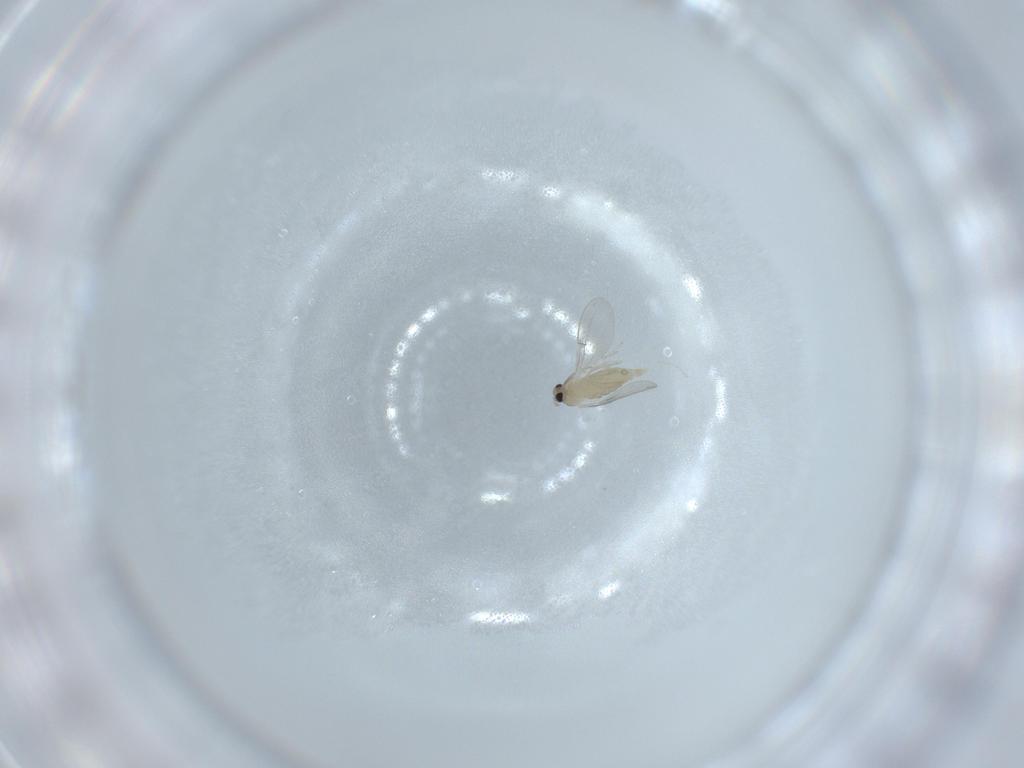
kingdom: Animalia
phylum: Arthropoda
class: Insecta
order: Diptera
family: Cecidomyiidae
